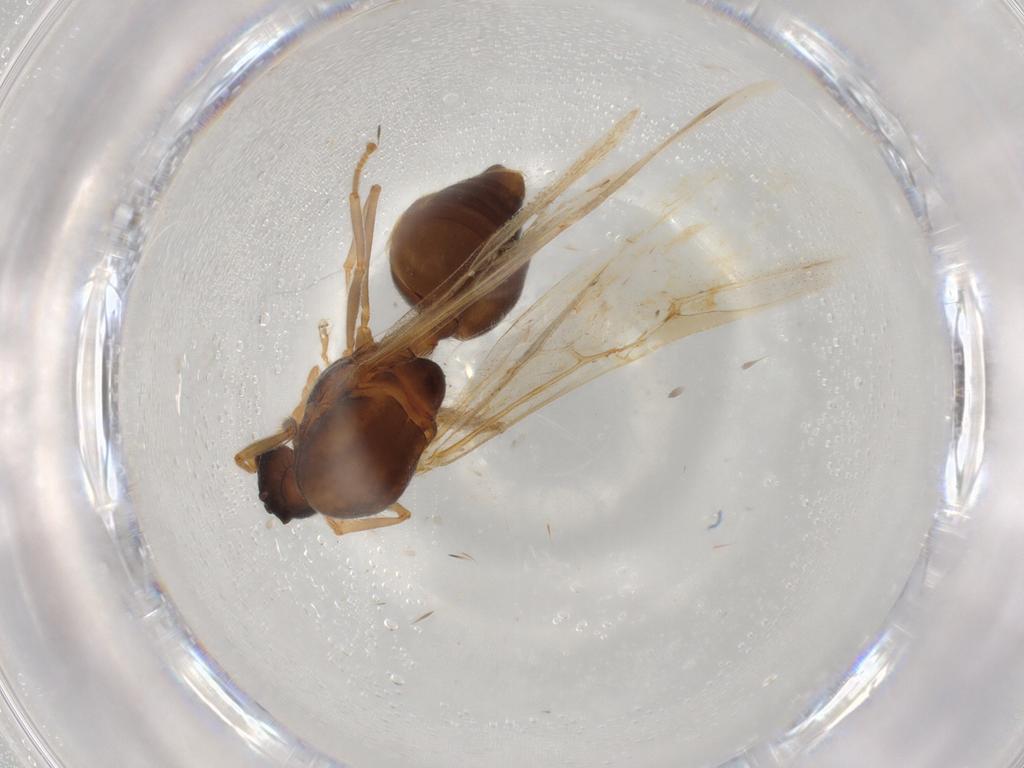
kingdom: Animalia
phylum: Arthropoda
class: Insecta
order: Hymenoptera
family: Formicidae
